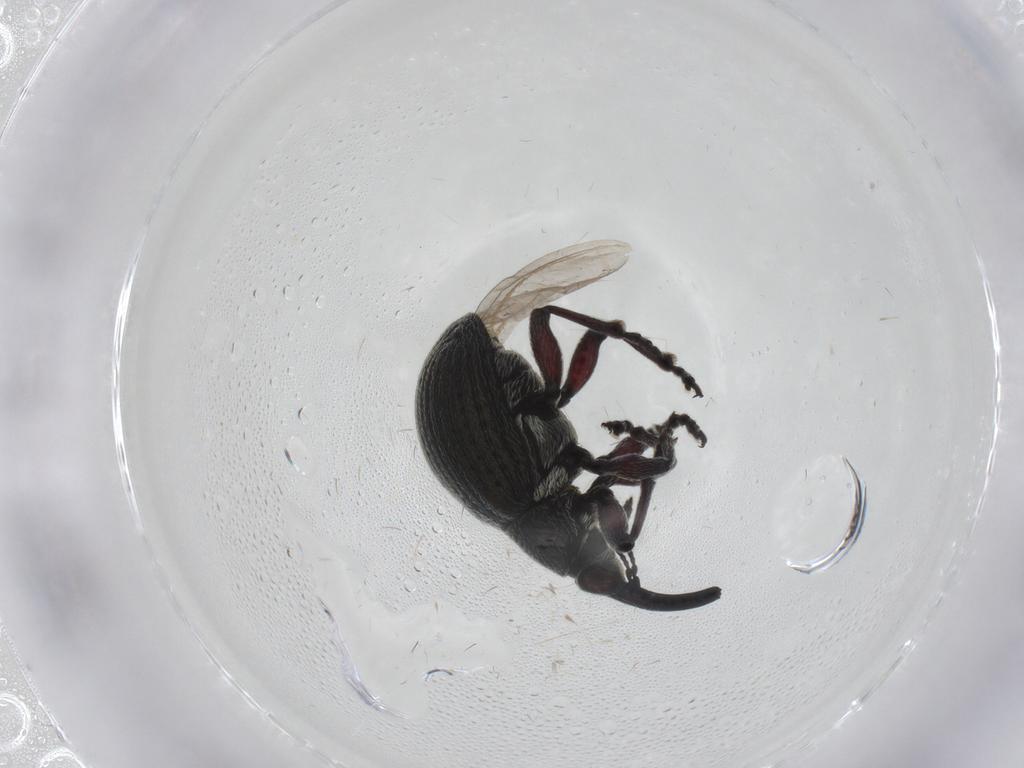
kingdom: Animalia
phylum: Arthropoda
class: Insecta
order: Coleoptera
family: Brentidae
